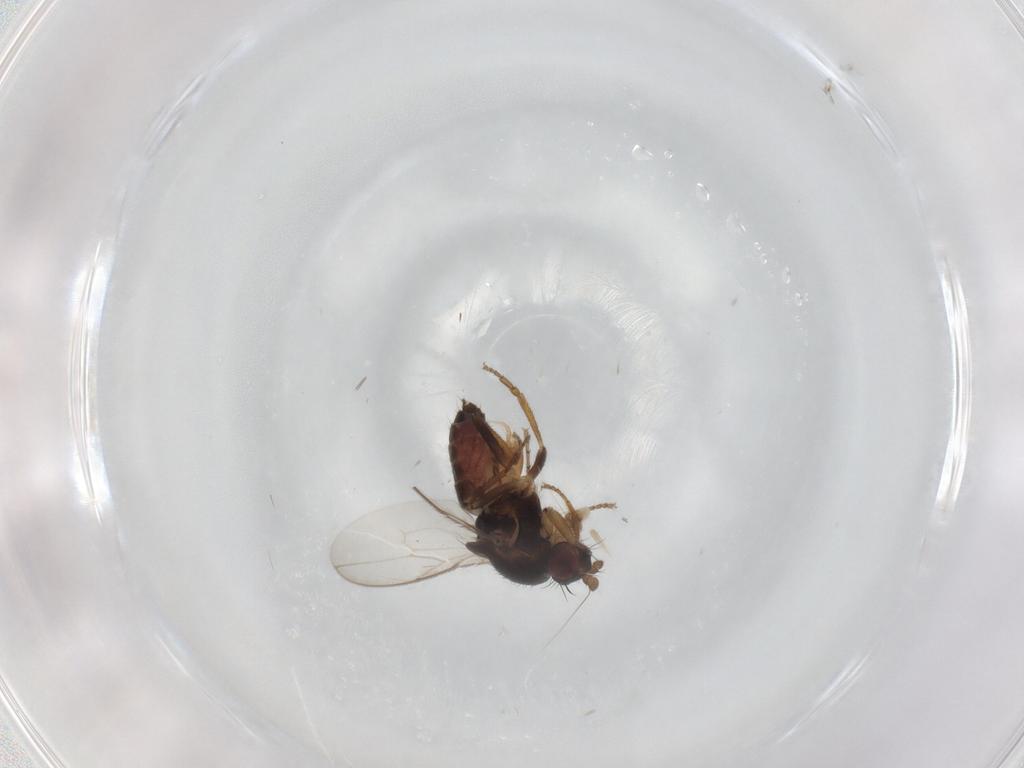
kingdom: Animalia
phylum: Arthropoda
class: Insecta
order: Diptera
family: Sphaeroceridae
